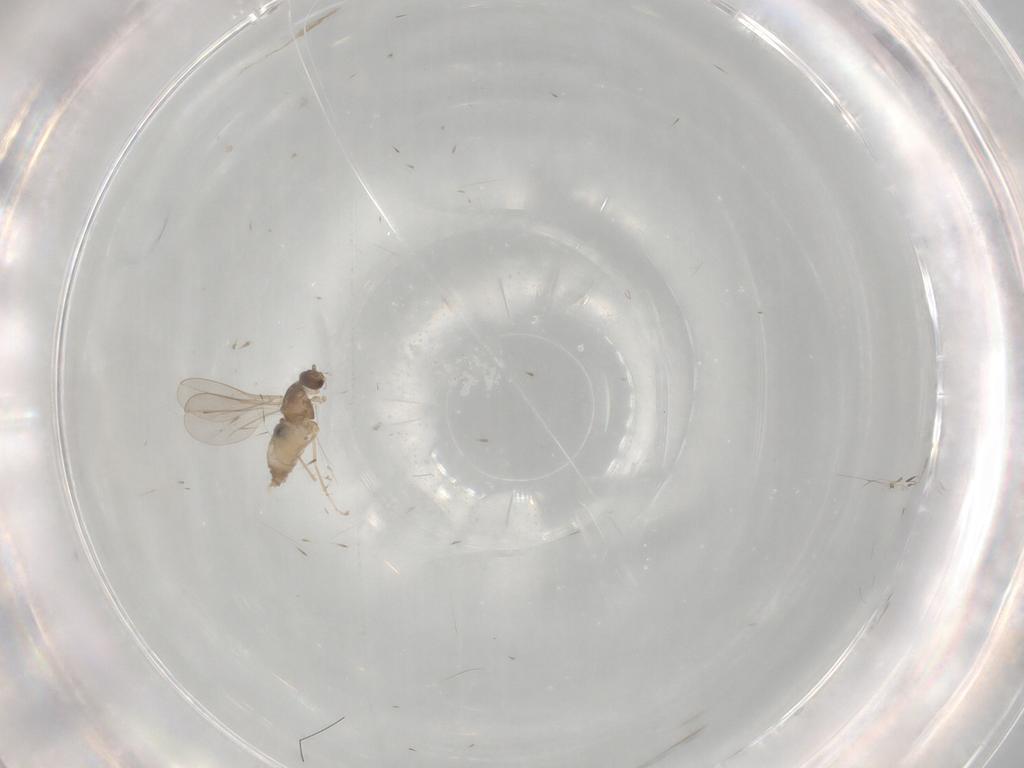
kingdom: Animalia
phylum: Arthropoda
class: Insecta
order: Diptera
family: Cecidomyiidae
